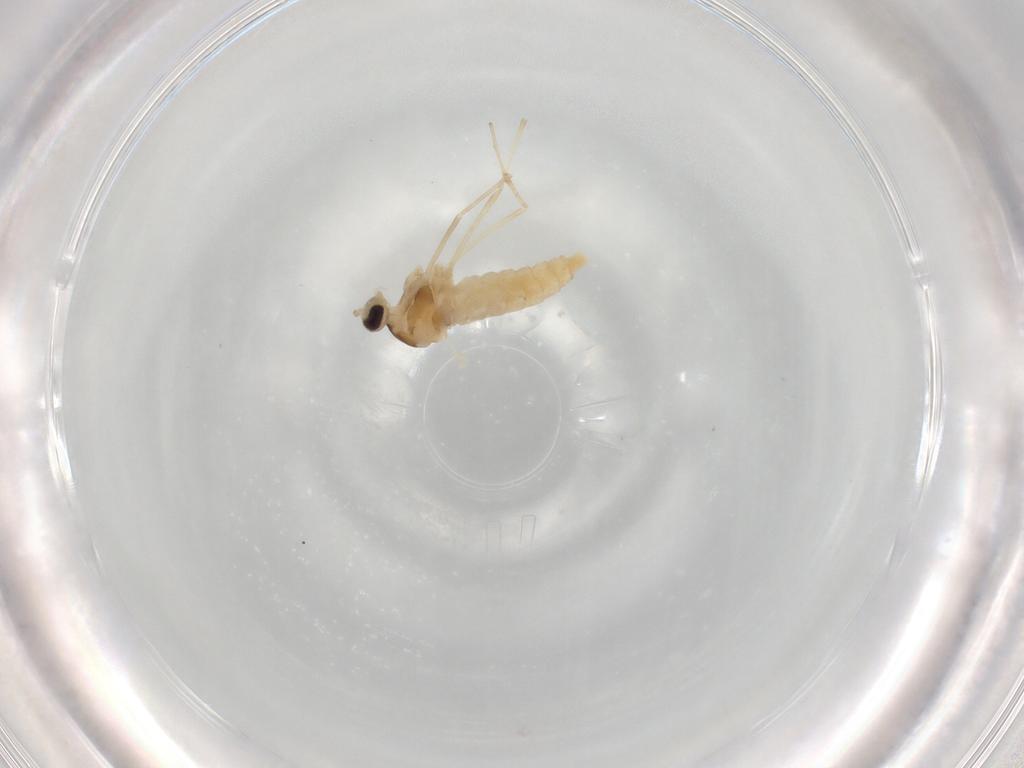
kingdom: Animalia
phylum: Arthropoda
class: Insecta
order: Diptera
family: Cecidomyiidae
